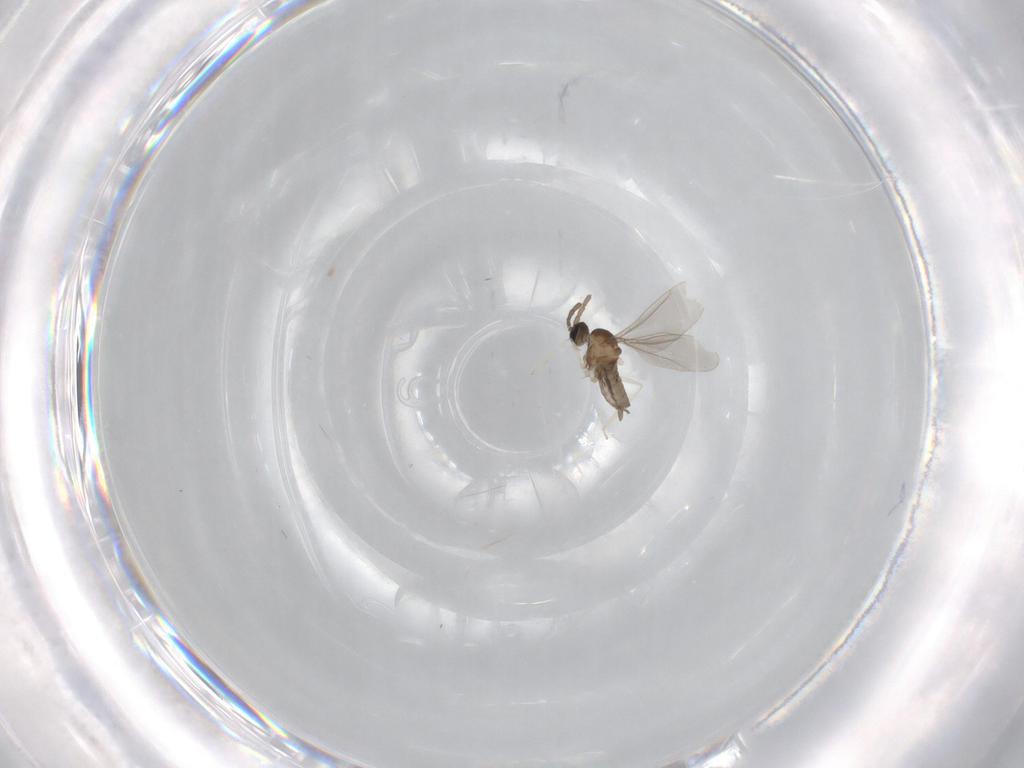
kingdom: Animalia
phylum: Arthropoda
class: Insecta
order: Diptera
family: Cecidomyiidae
